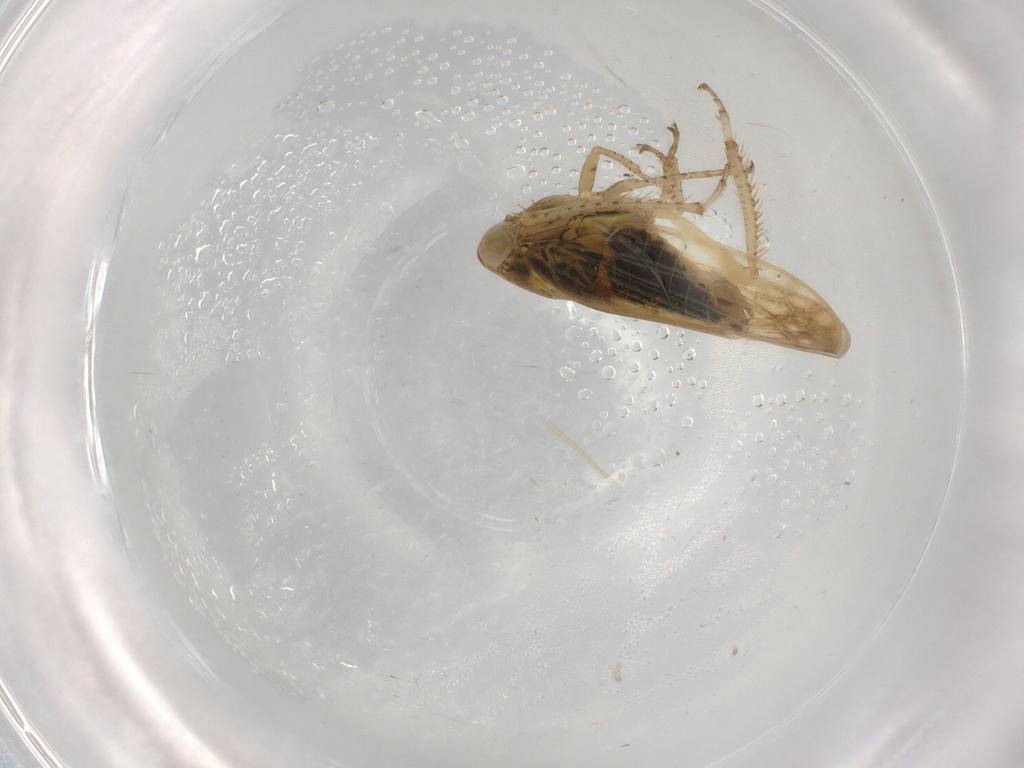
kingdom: Animalia
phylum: Arthropoda
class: Insecta
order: Hemiptera
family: Cicadellidae
